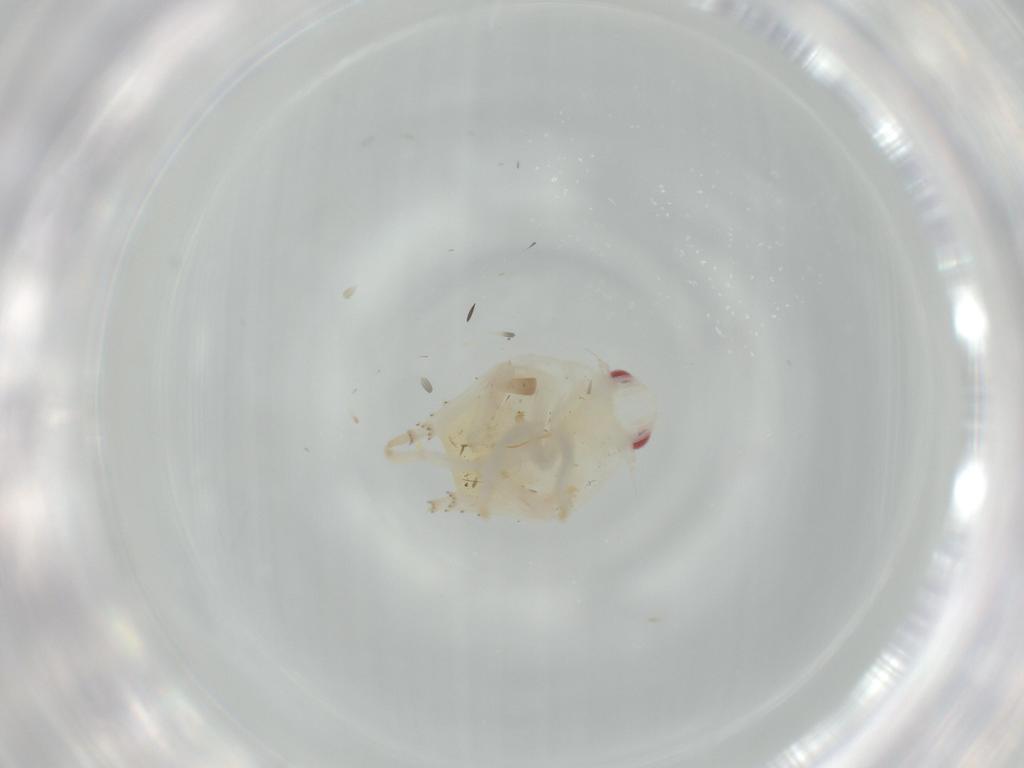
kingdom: Animalia
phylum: Arthropoda
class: Insecta
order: Hemiptera
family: Flatidae
